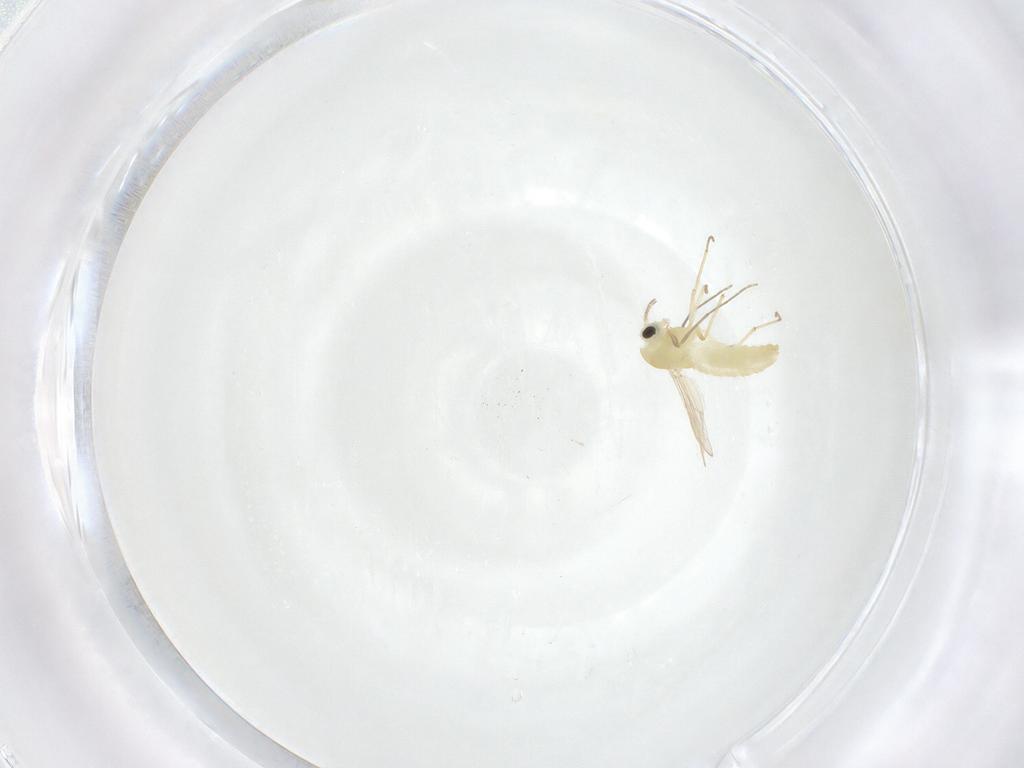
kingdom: Animalia
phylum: Arthropoda
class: Insecta
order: Diptera
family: Chironomidae
